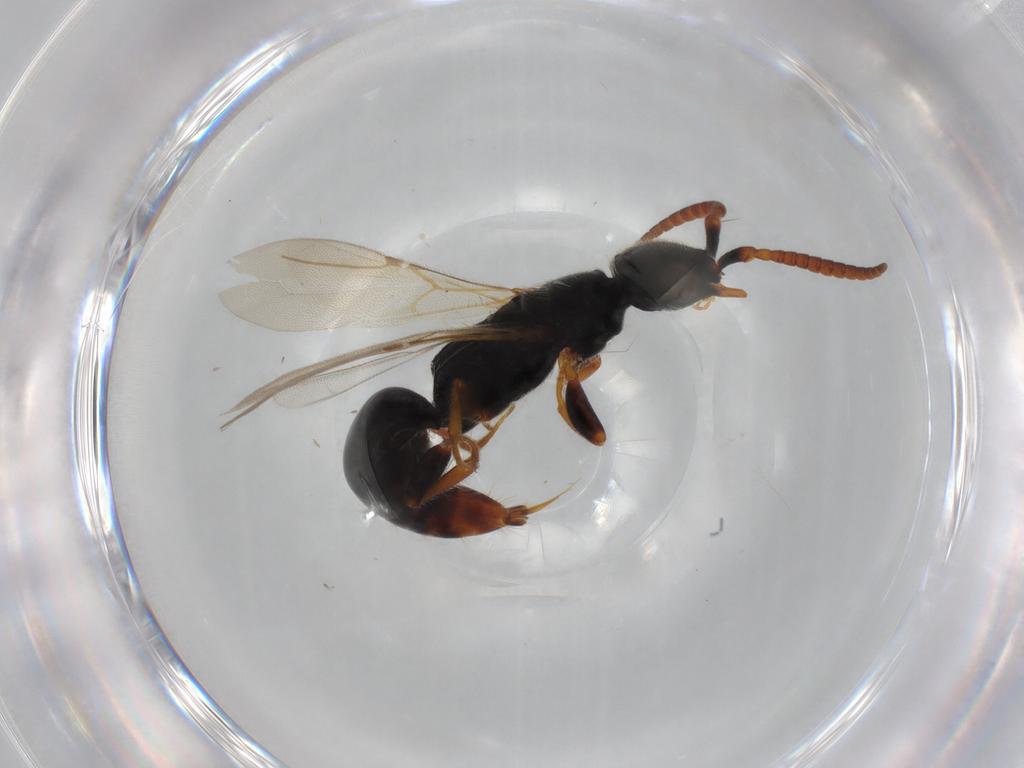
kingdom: Animalia
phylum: Arthropoda
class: Insecta
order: Hymenoptera
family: Bethylidae
